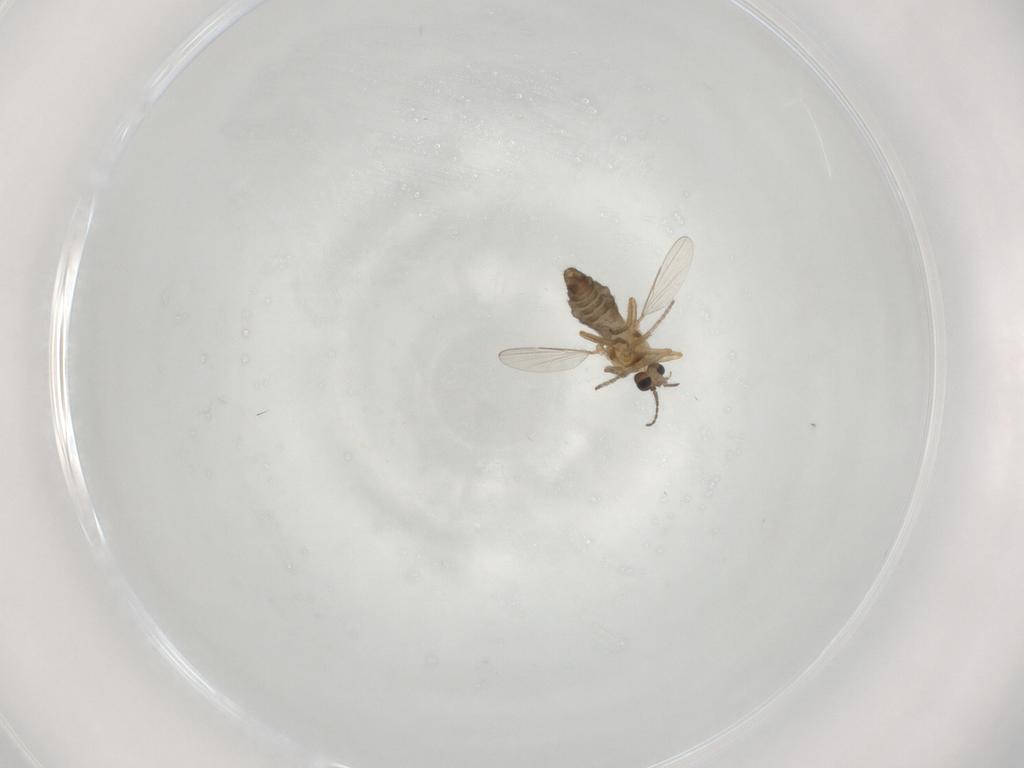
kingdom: Animalia
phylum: Arthropoda
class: Insecta
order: Diptera
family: Ceratopogonidae
